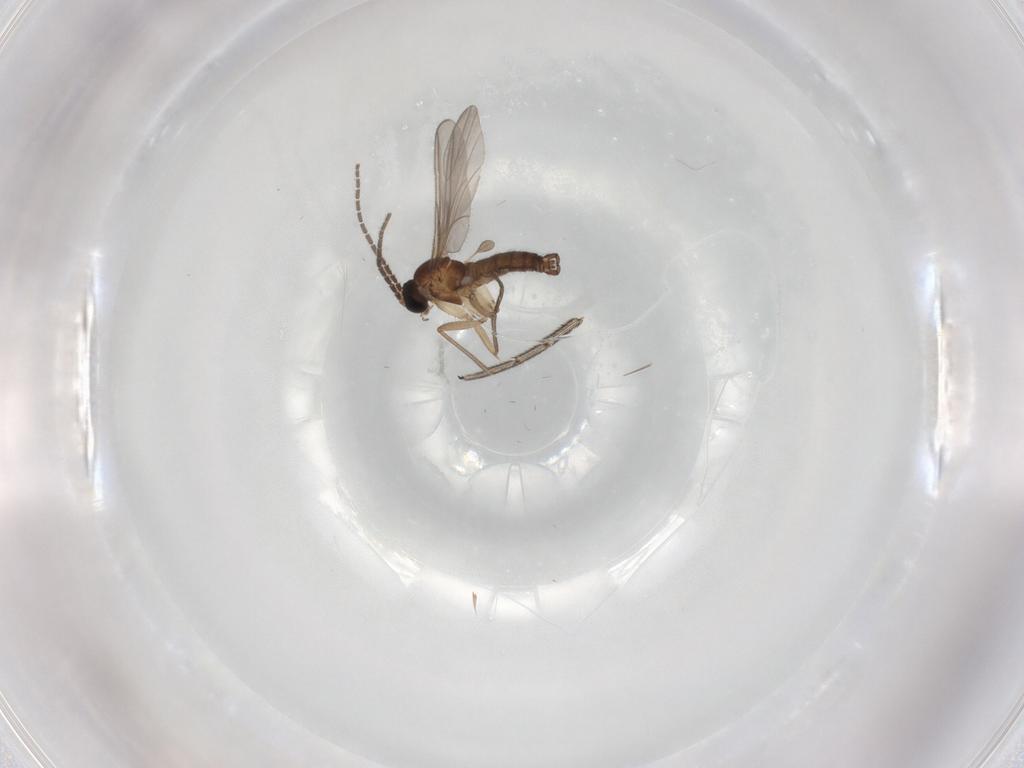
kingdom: Animalia
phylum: Arthropoda
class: Insecta
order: Diptera
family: Sciaridae
